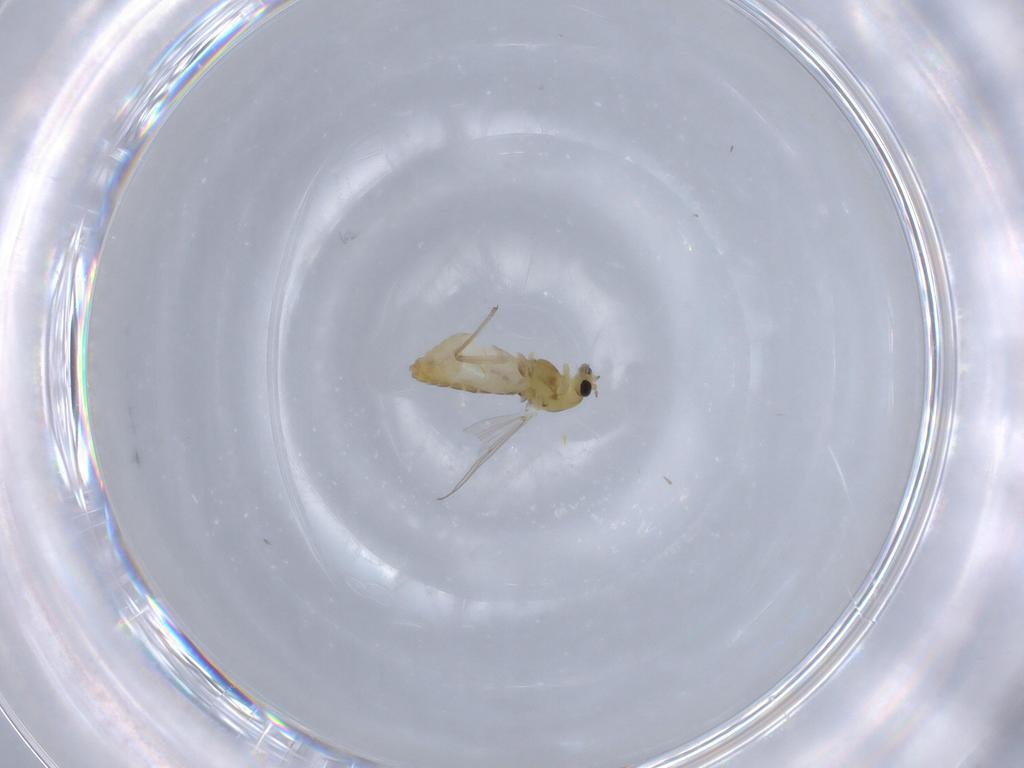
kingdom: Animalia
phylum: Arthropoda
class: Insecta
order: Diptera
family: Chironomidae
